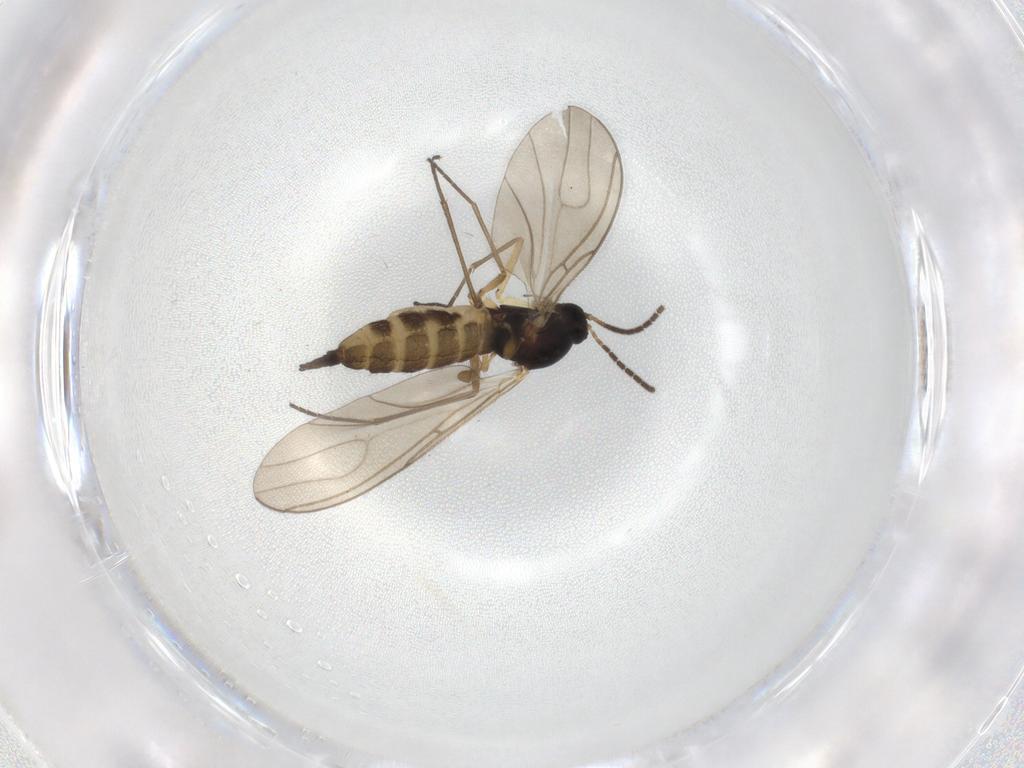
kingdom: Animalia
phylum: Arthropoda
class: Insecta
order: Diptera
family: Sciaridae
